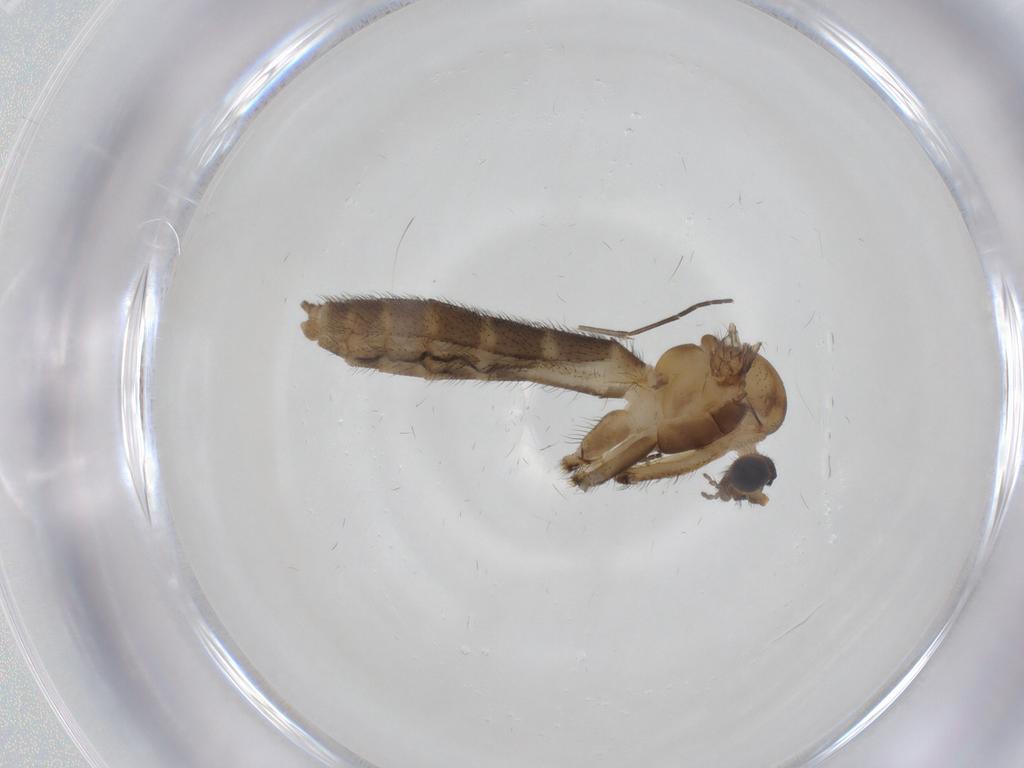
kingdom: Animalia
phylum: Arthropoda
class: Insecta
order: Diptera
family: Keroplatidae
